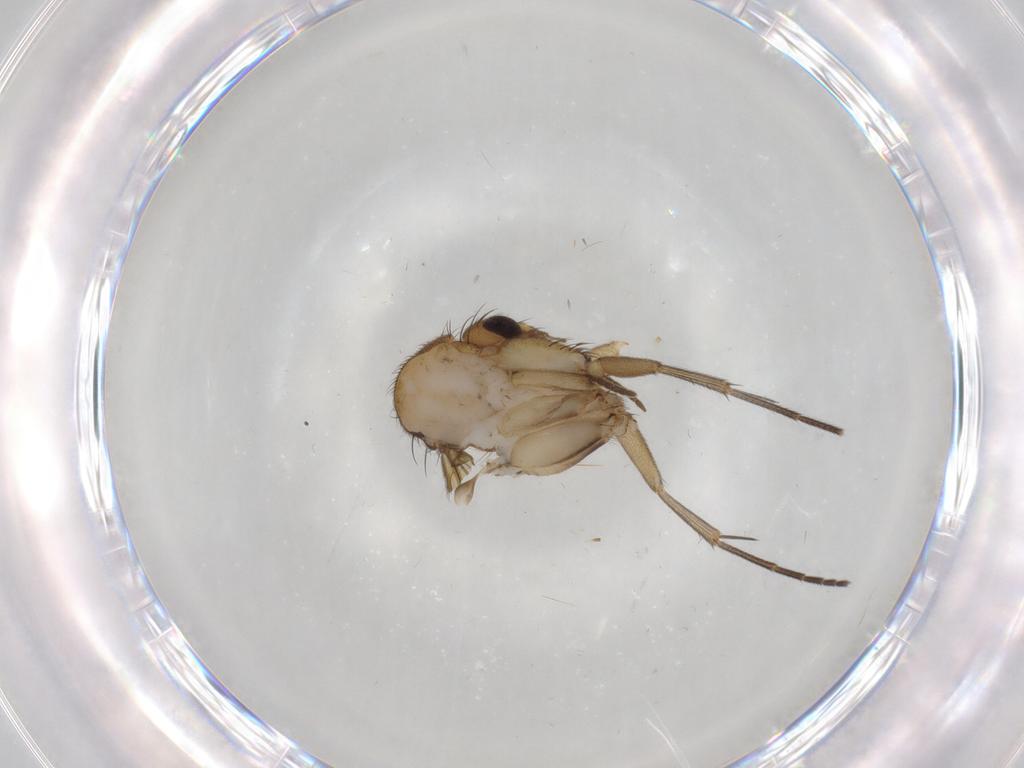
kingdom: Animalia
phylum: Arthropoda
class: Insecta
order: Diptera
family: Mycetophilidae
